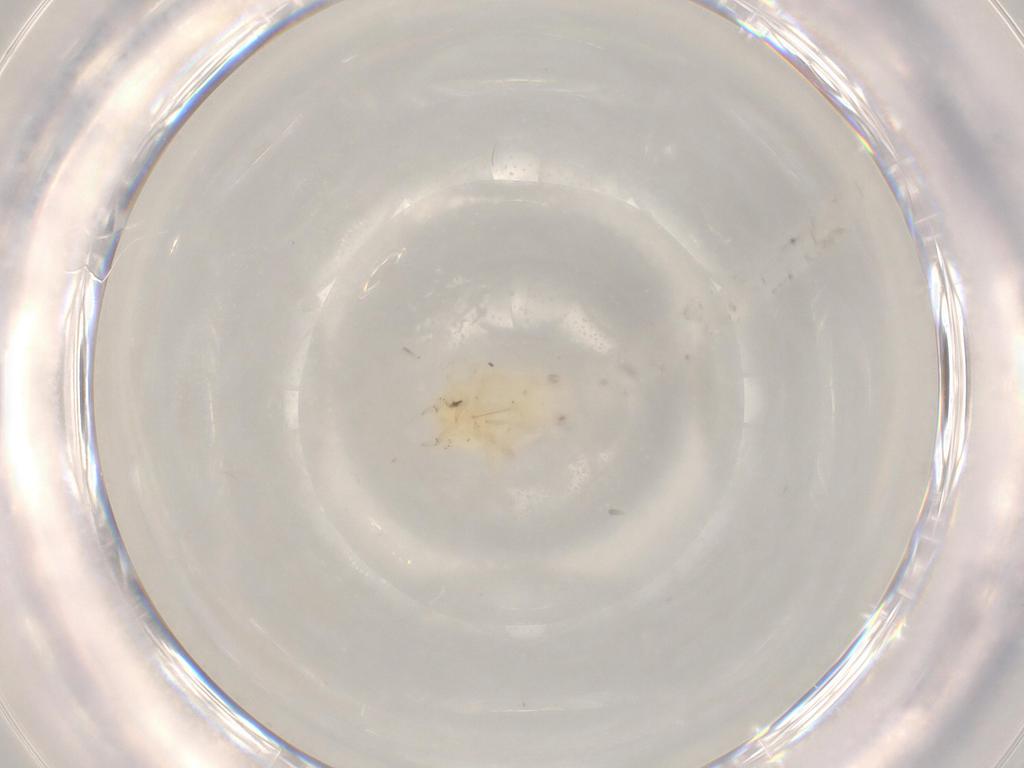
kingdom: Animalia
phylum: Arthropoda
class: Insecta
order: Hemiptera
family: Flatidae
